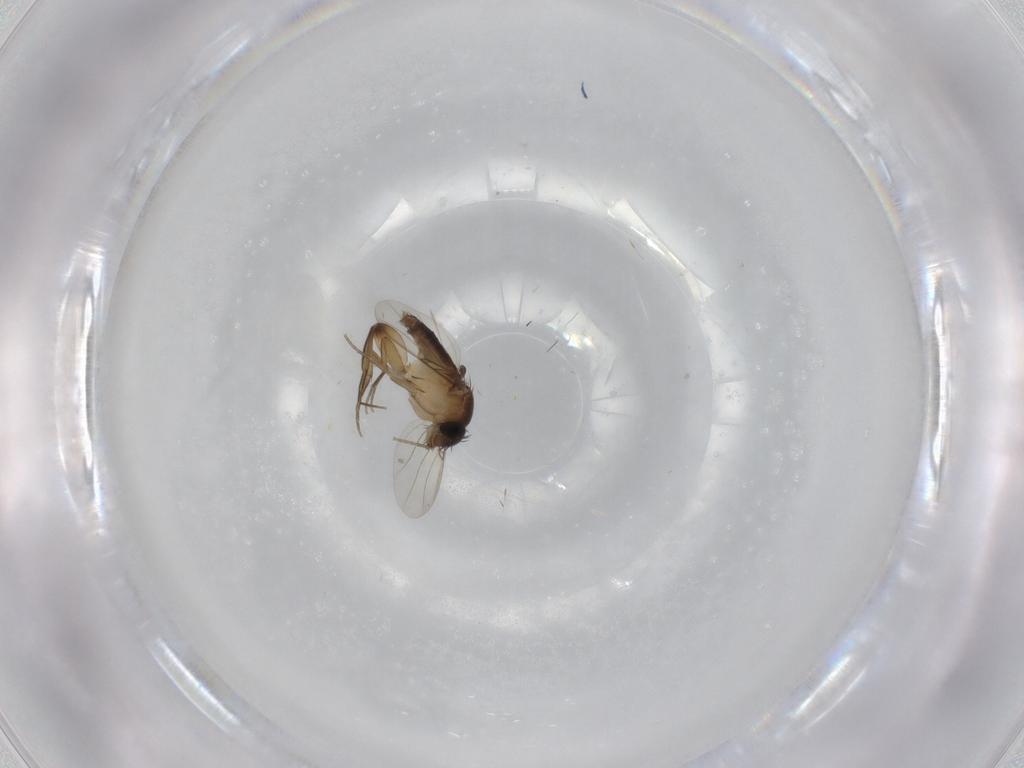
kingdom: Animalia
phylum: Arthropoda
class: Insecta
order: Diptera
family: Phoridae
